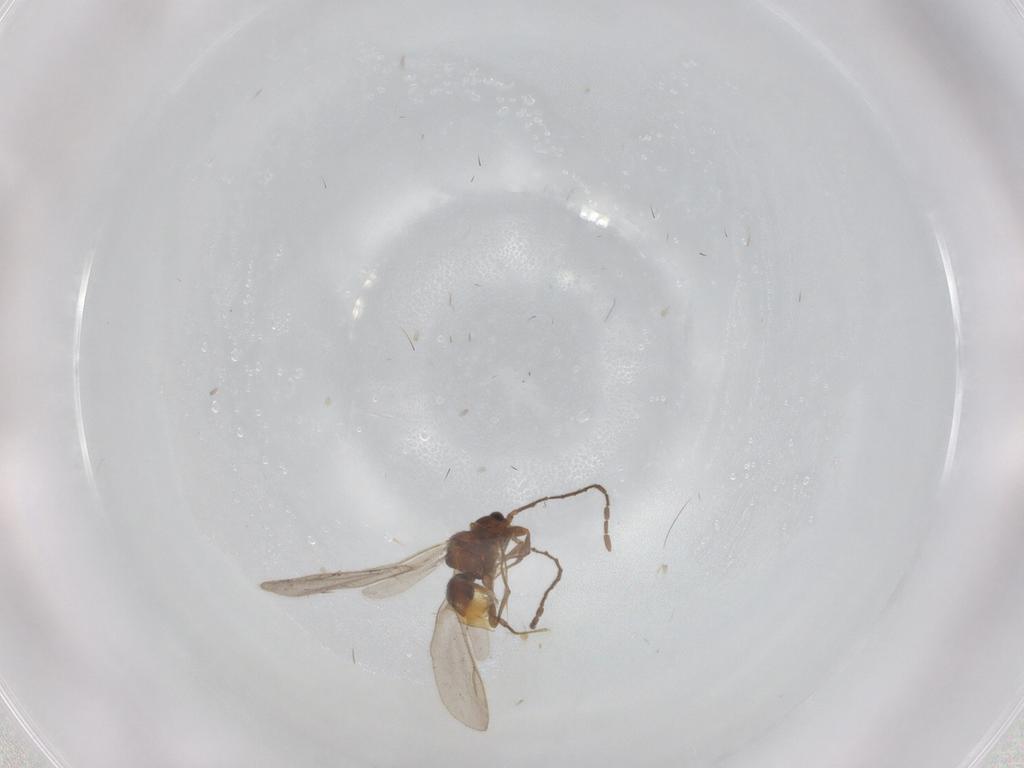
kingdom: Animalia
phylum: Arthropoda
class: Insecta
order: Hymenoptera
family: Formicidae
